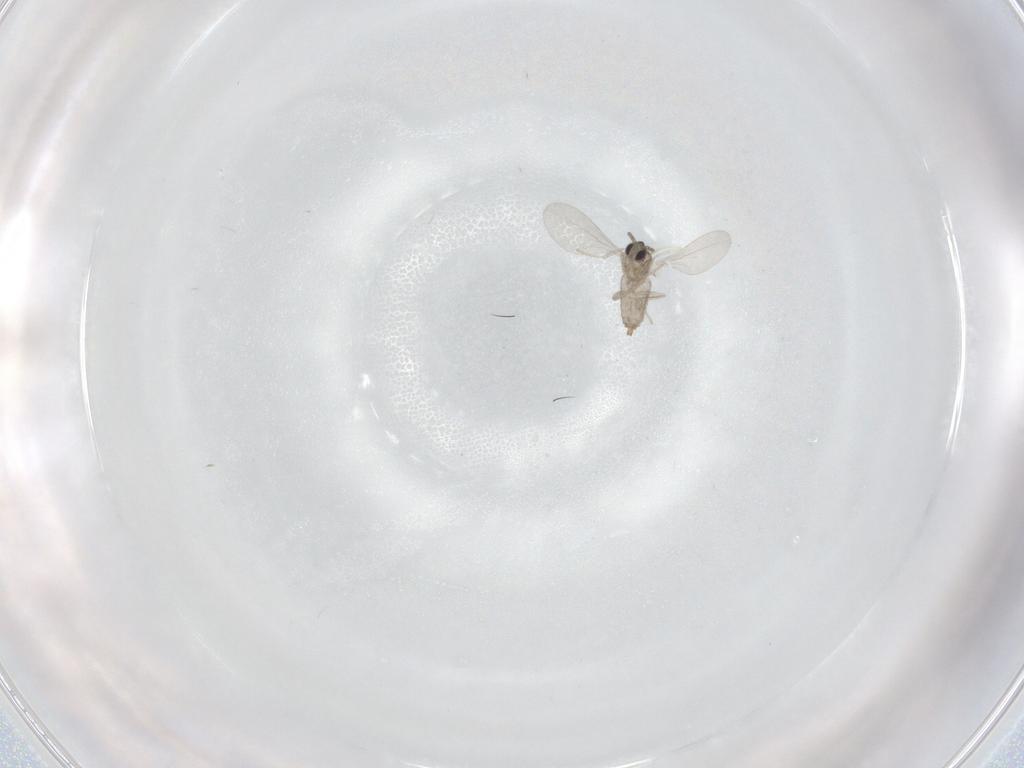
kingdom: Animalia
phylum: Arthropoda
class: Insecta
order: Diptera
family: Cecidomyiidae
